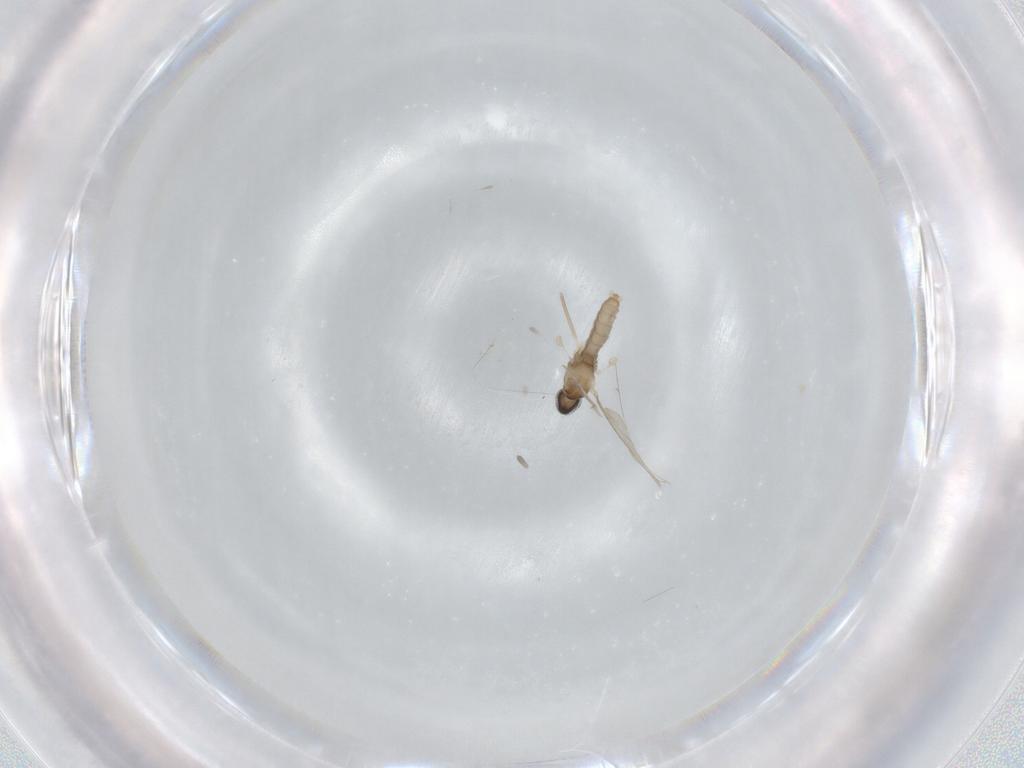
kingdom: Animalia
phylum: Arthropoda
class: Insecta
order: Diptera
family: Cecidomyiidae
